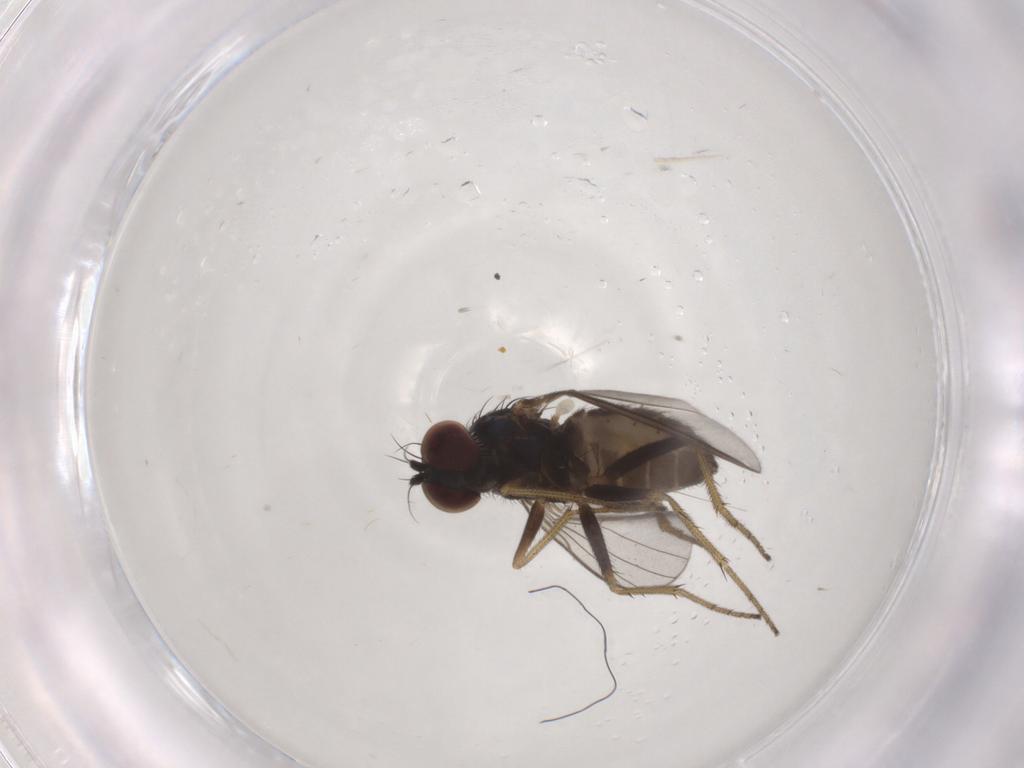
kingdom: Animalia
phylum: Arthropoda
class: Insecta
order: Diptera
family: Dolichopodidae
